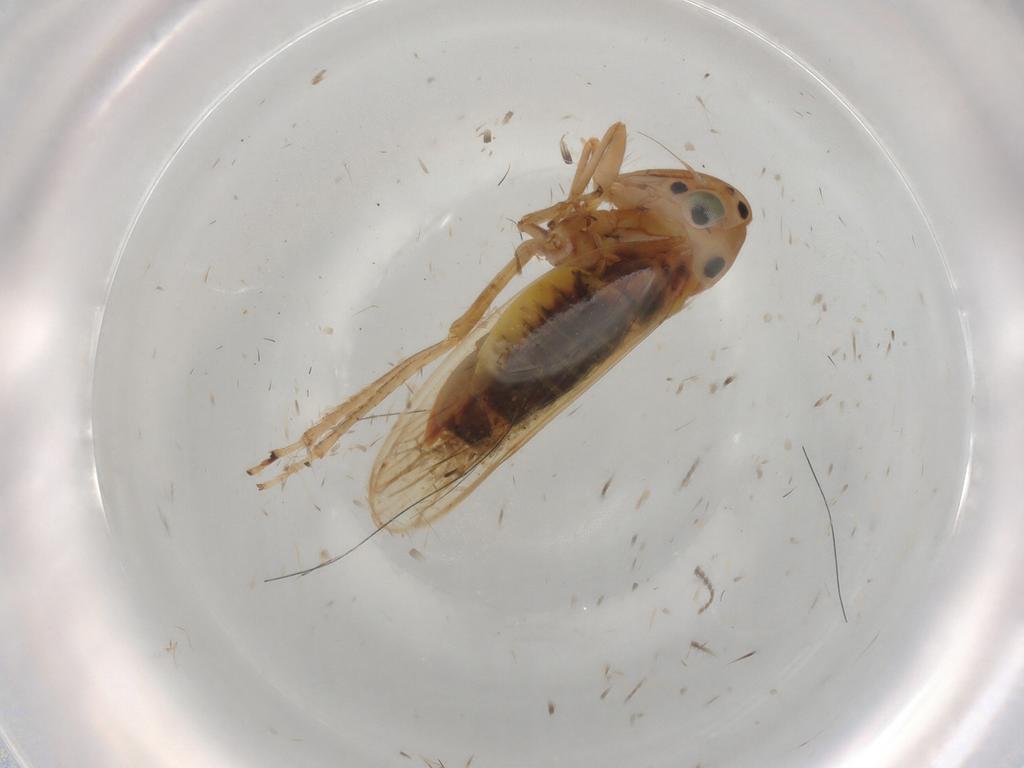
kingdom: Animalia
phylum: Arthropoda
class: Insecta
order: Hemiptera
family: Cicadellidae
